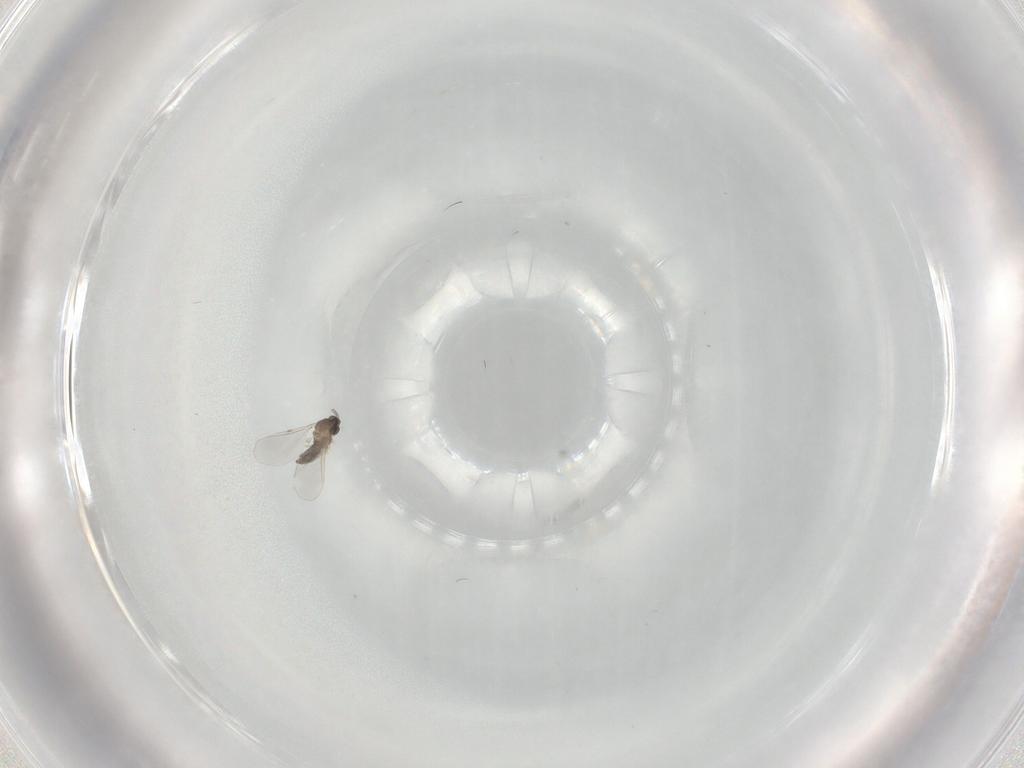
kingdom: Animalia
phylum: Arthropoda
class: Insecta
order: Diptera
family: Cecidomyiidae
